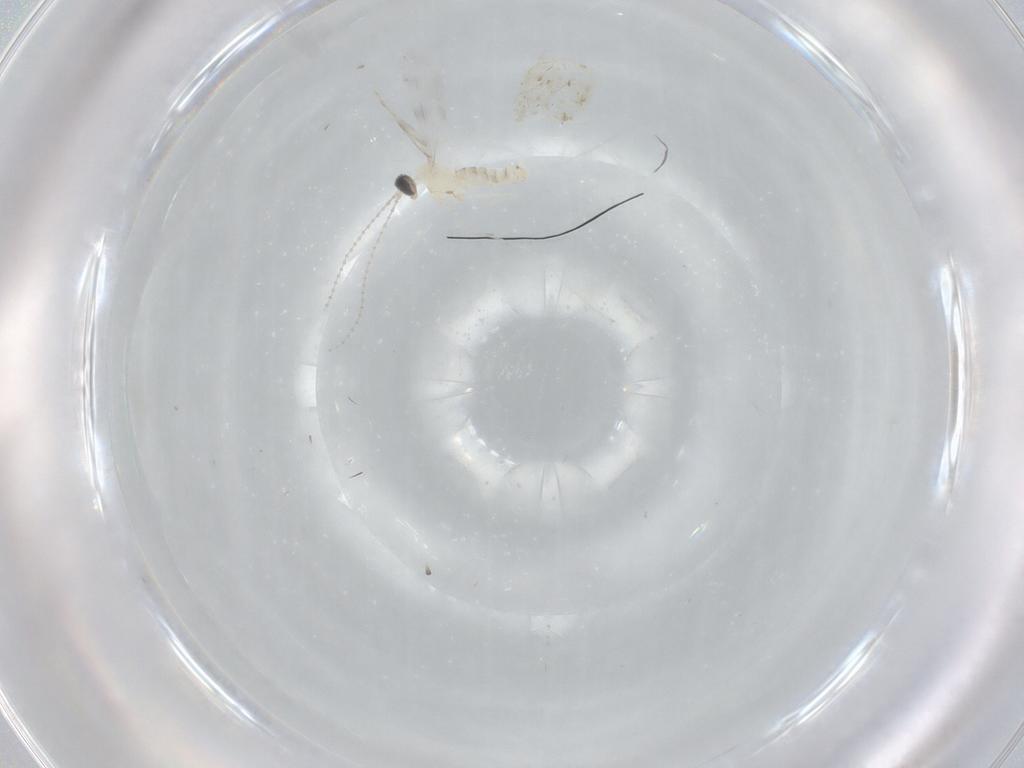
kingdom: Animalia
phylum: Arthropoda
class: Insecta
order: Diptera
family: Cecidomyiidae
